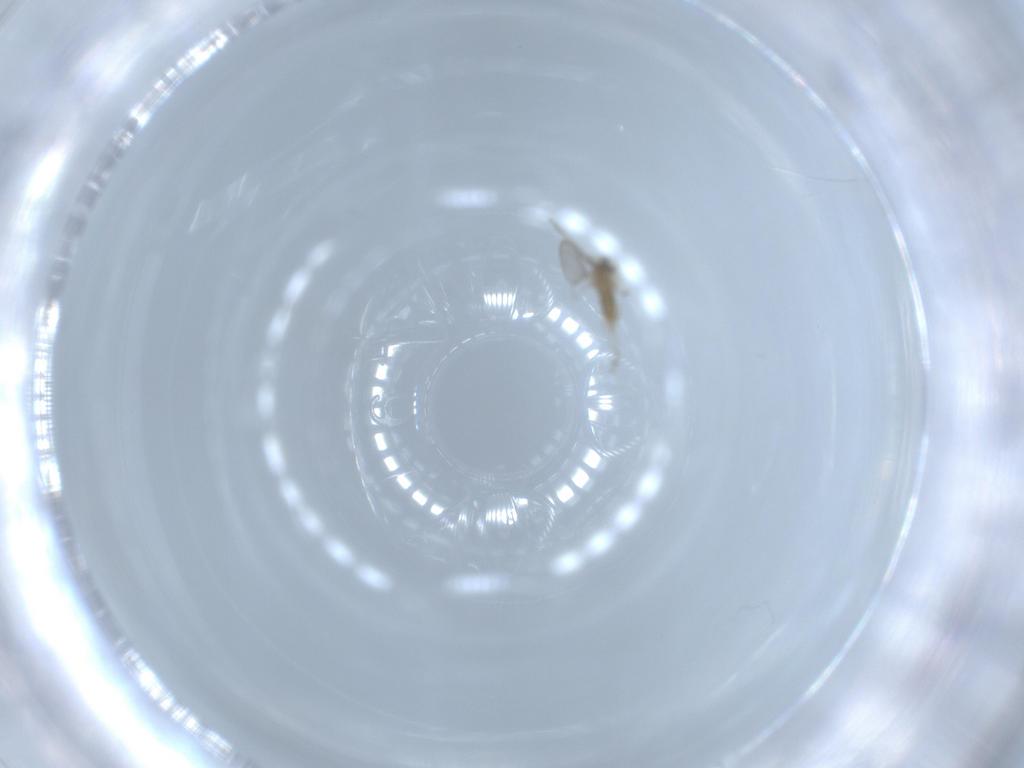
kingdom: Animalia
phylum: Arthropoda
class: Insecta
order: Diptera
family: Cecidomyiidae
